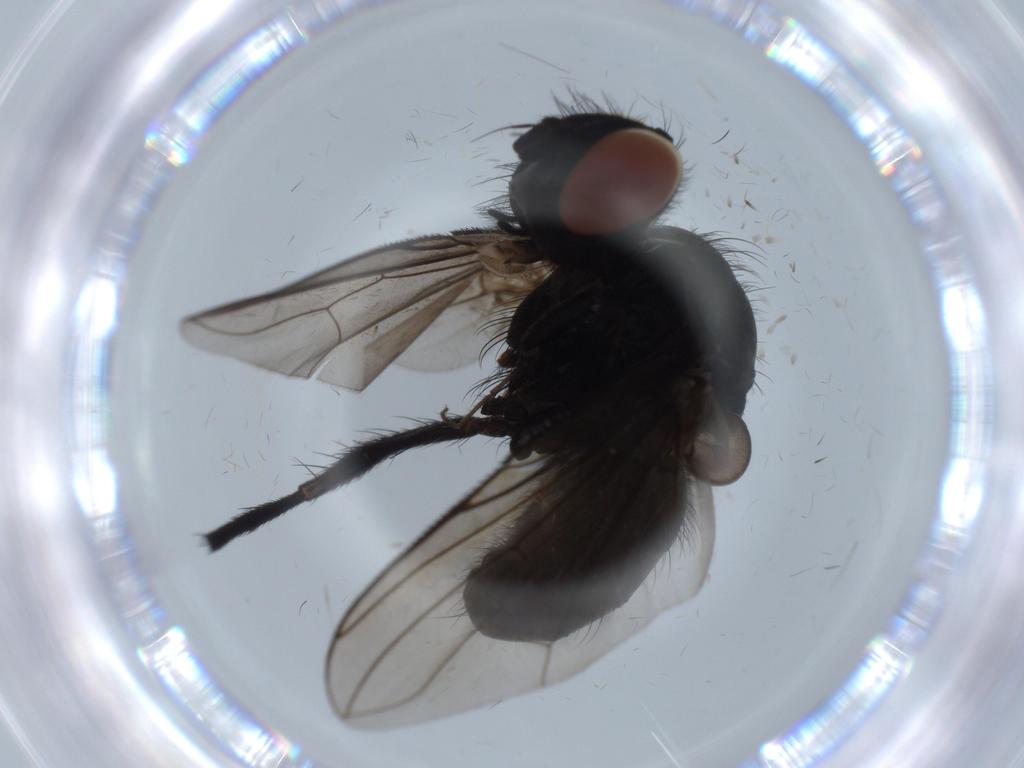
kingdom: Animalia
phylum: Arthropoda
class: Insecta
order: Diptera
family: Tachinidae
